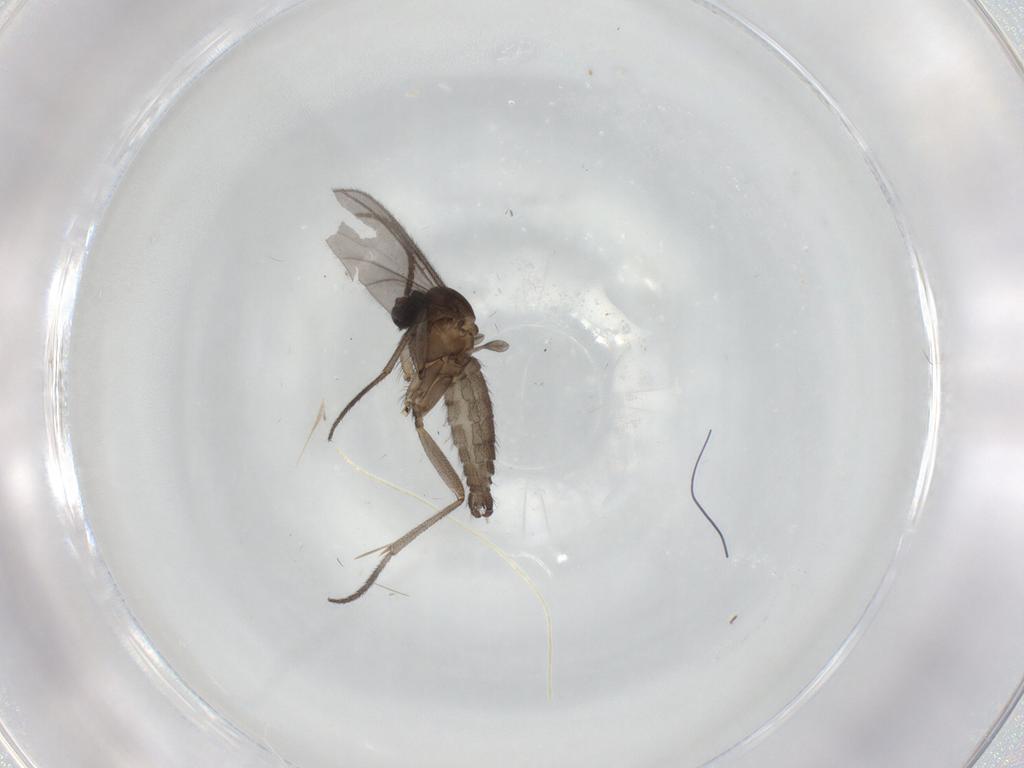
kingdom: Animalia
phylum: Arthropoda
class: Insecta
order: Diptera
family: Sciaridae
